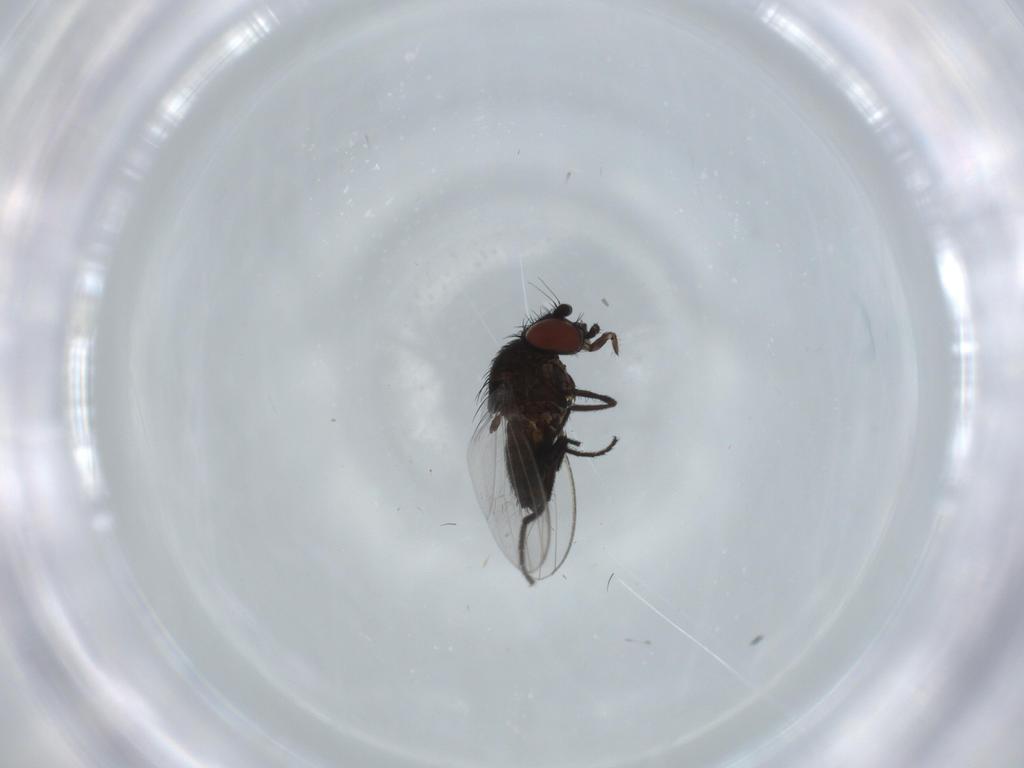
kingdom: Animalia
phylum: Arthropoda
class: Insecta
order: Diptera
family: Milichiidae
